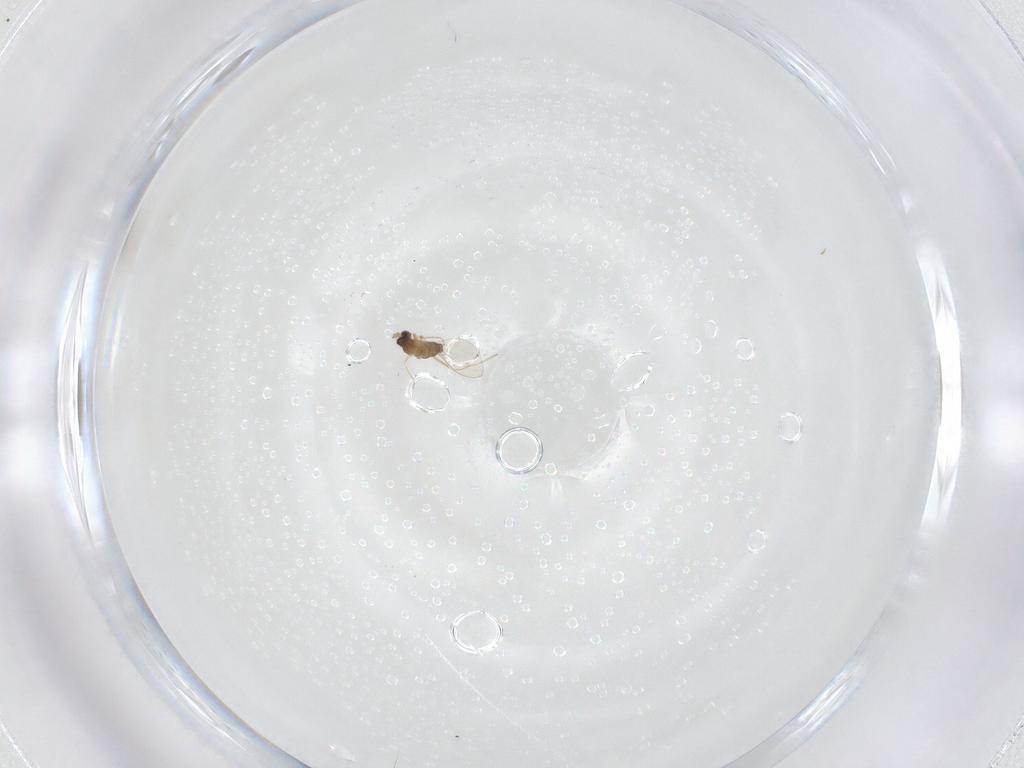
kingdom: Animalia
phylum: Arthropoda
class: Insecta
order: Diptera
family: Cecidomyiidae
